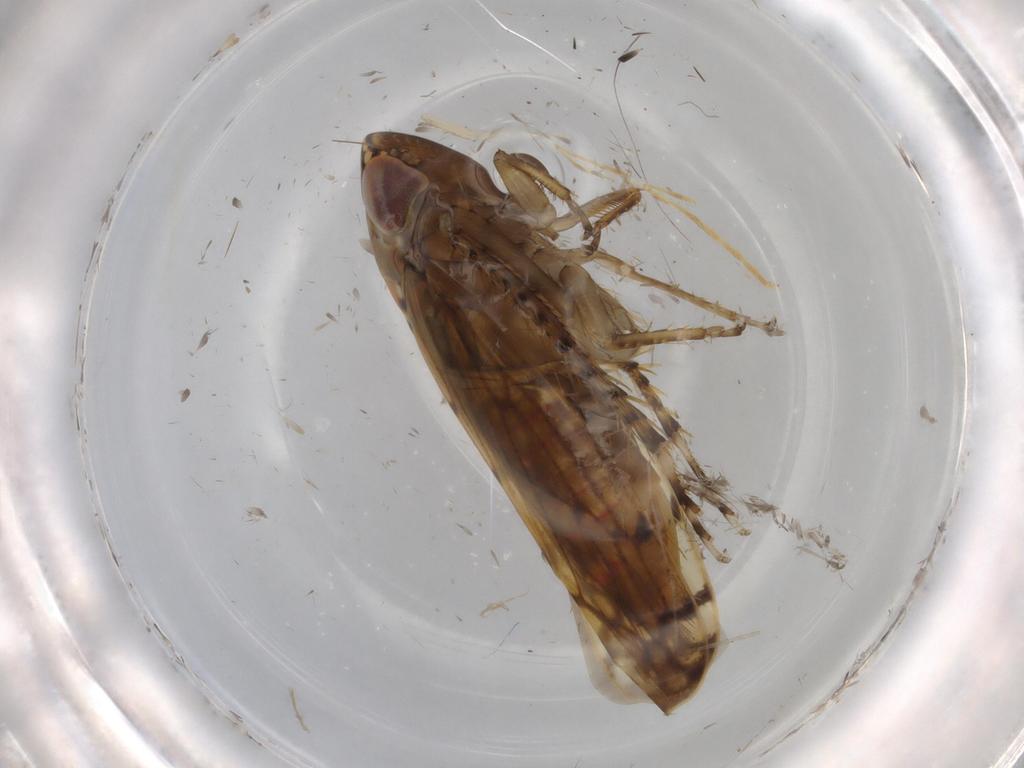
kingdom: Animalia
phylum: Arthropoda
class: Insecta
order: Hemiptera
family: Cicadellidae
